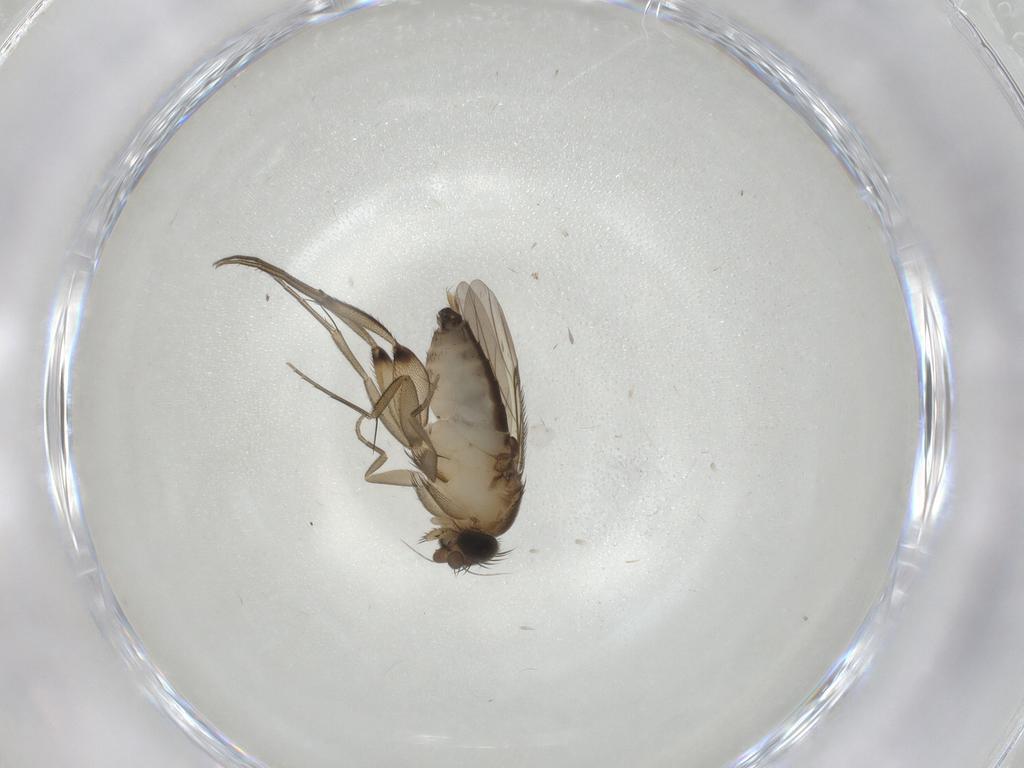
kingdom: Animalia
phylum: Arthropoda
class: Insecta
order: Diptera
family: Phoridae
